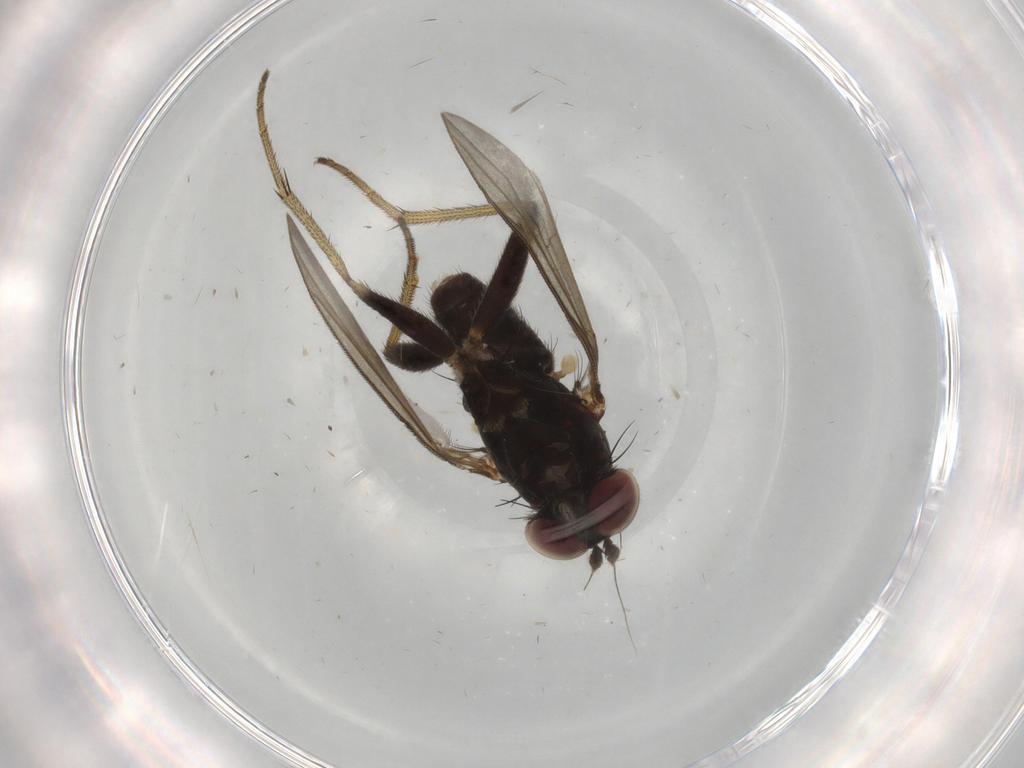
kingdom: Animalia
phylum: Arthropoda
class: Insecta
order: Diptera
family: Dolichopodidae
